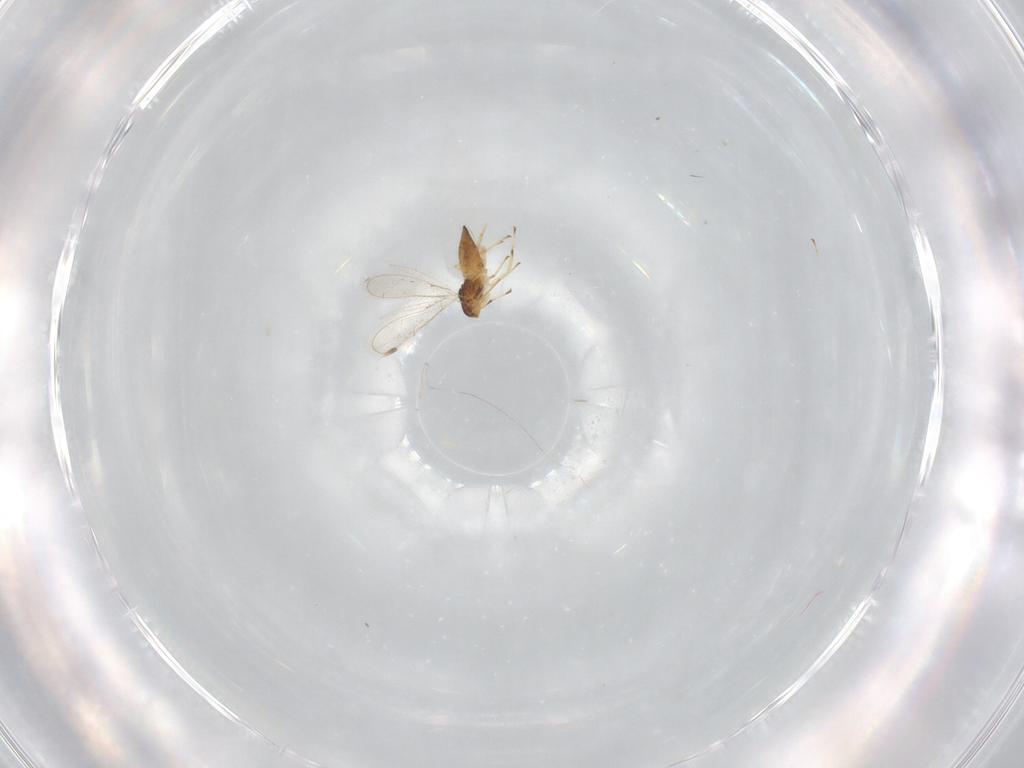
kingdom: Animalia
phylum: Arthropoda
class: Insecta
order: Hymenoptera
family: Eulophidae
